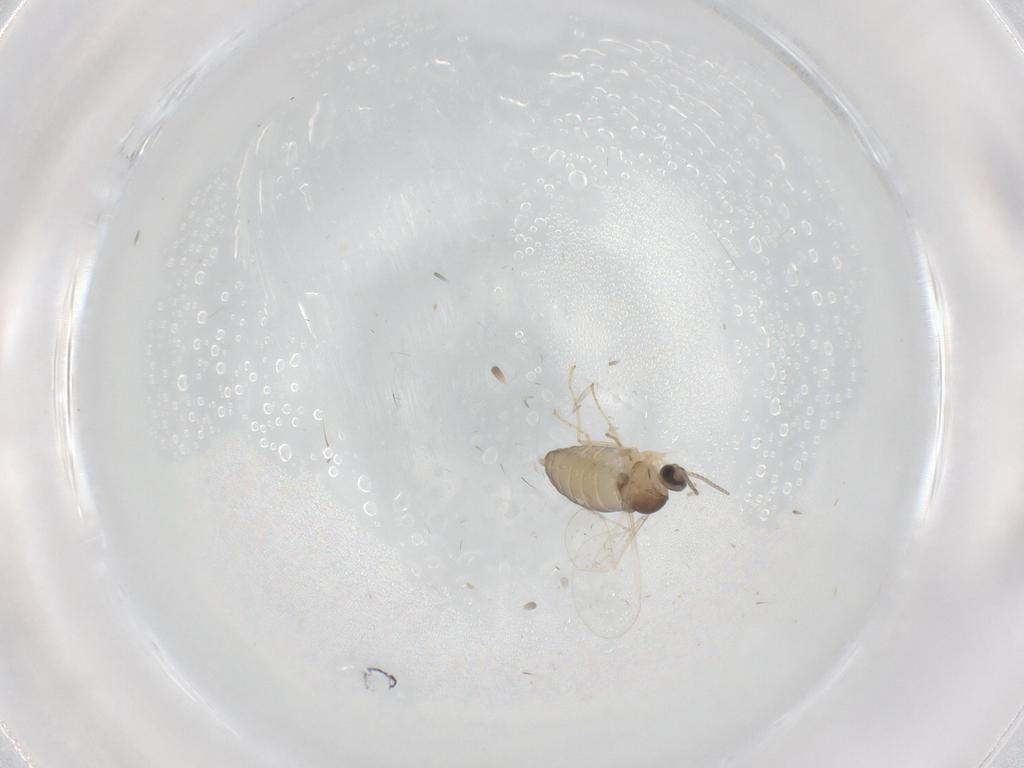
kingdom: Animalia
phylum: Arthropoda
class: Insecta
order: Diptera
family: Cecidomyiidae
